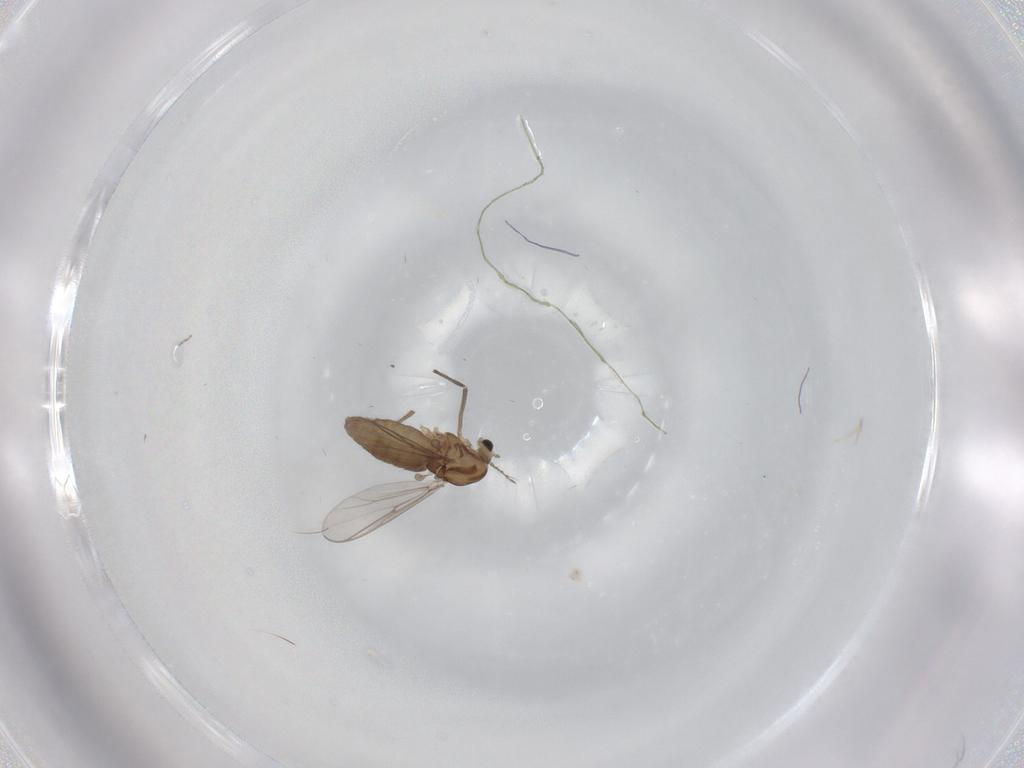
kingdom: Animalia
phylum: Arthropoda
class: Insecta
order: Diptera
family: Chironomidae
